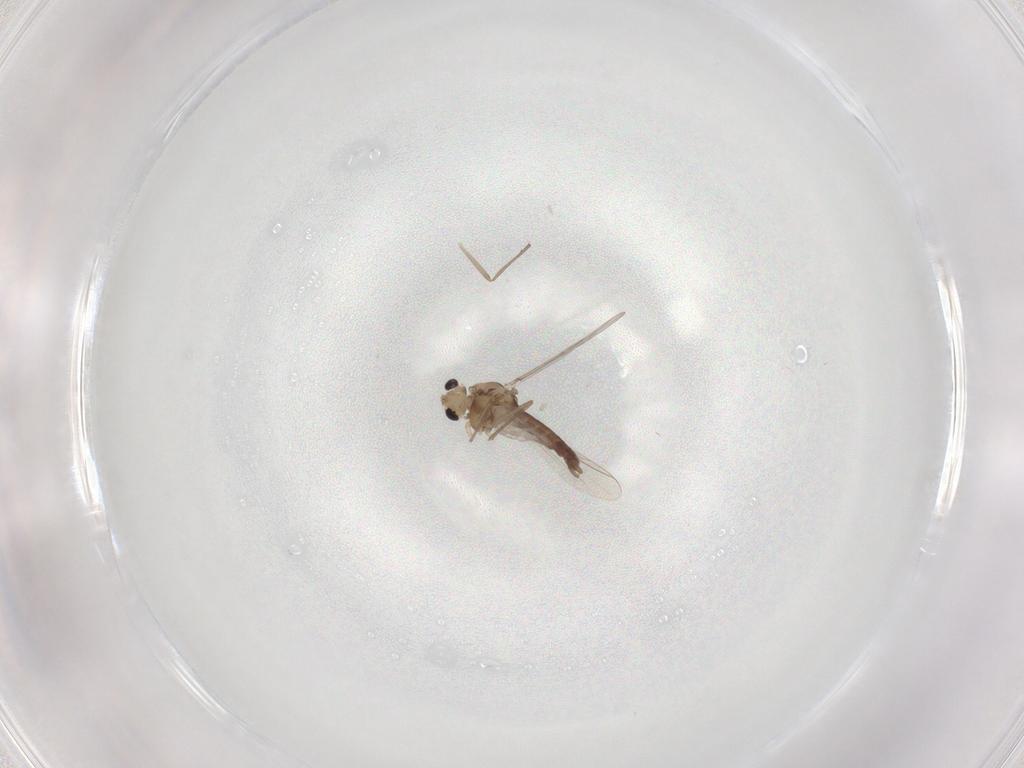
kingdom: Animalia
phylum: Arthropoda
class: Insecta
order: Diptera
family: Chironomidae
